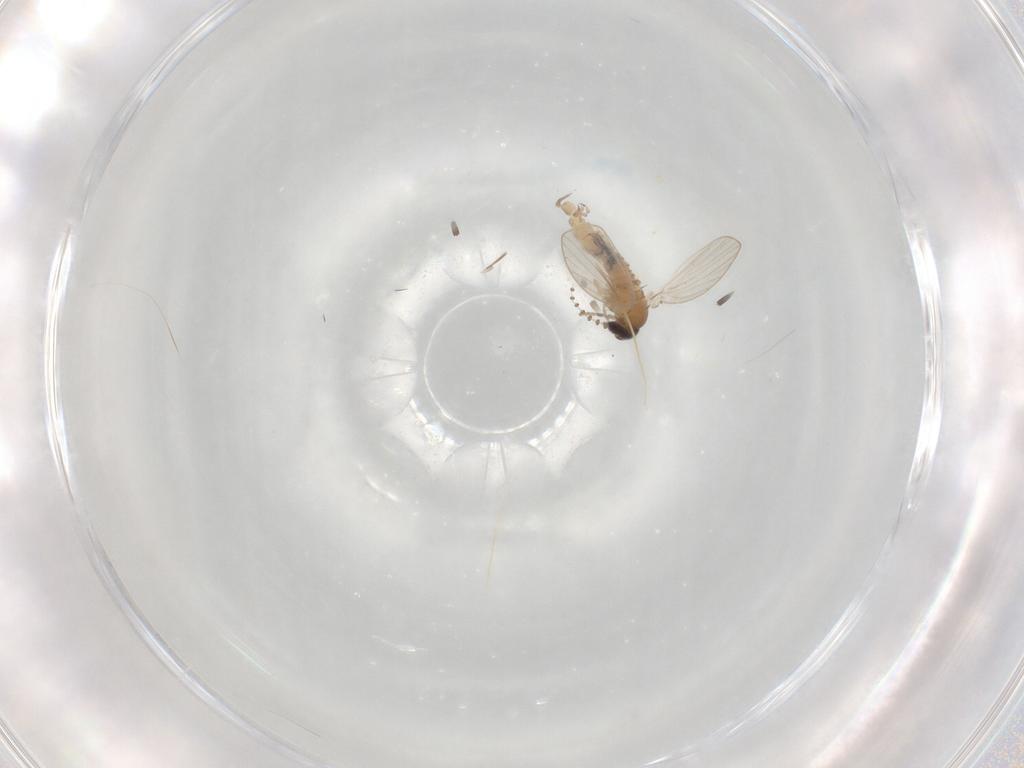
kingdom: Animalia
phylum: Arthropoda
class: Insecta
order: Diptera
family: Psychodidae
